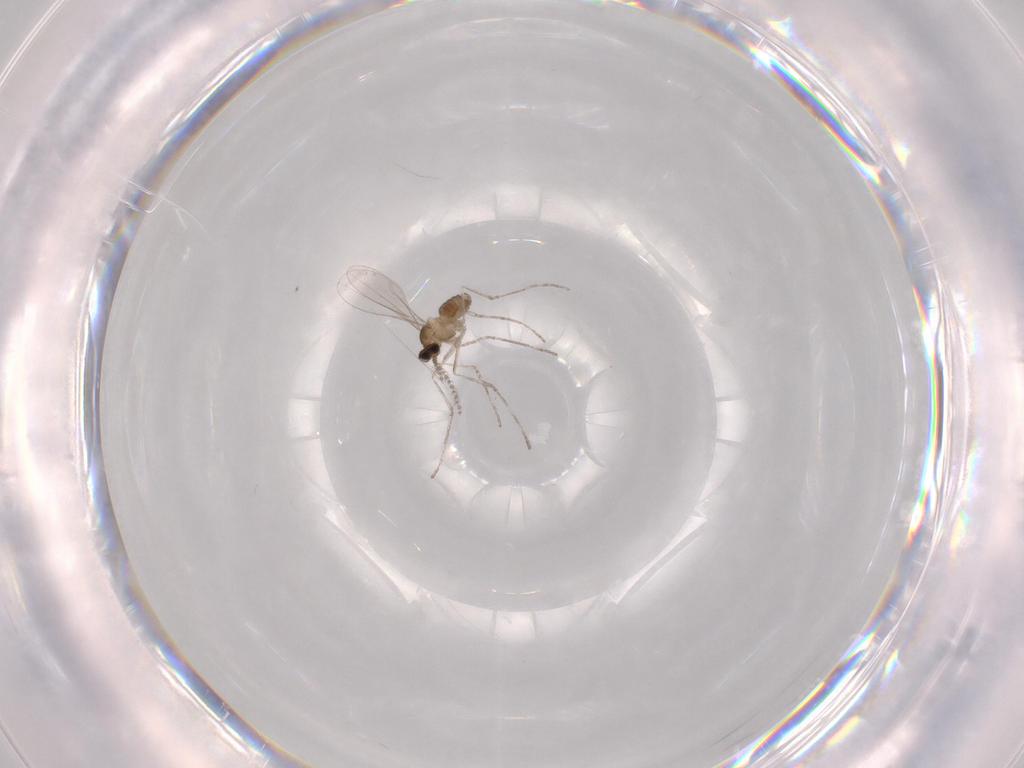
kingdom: Animalia
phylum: Arthropoda
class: Insecta
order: Diptera
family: Cecidomyiidae
